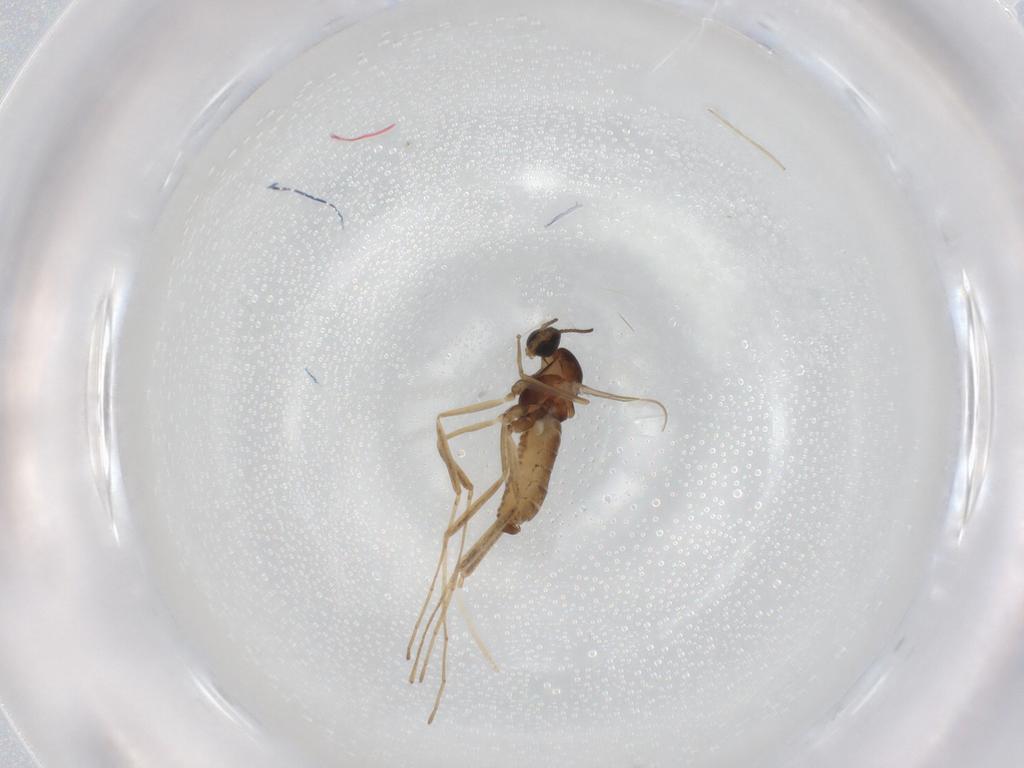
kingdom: Animalia
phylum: Arthropoda
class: Insecta
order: Diptera
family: Cecidomyiidae
